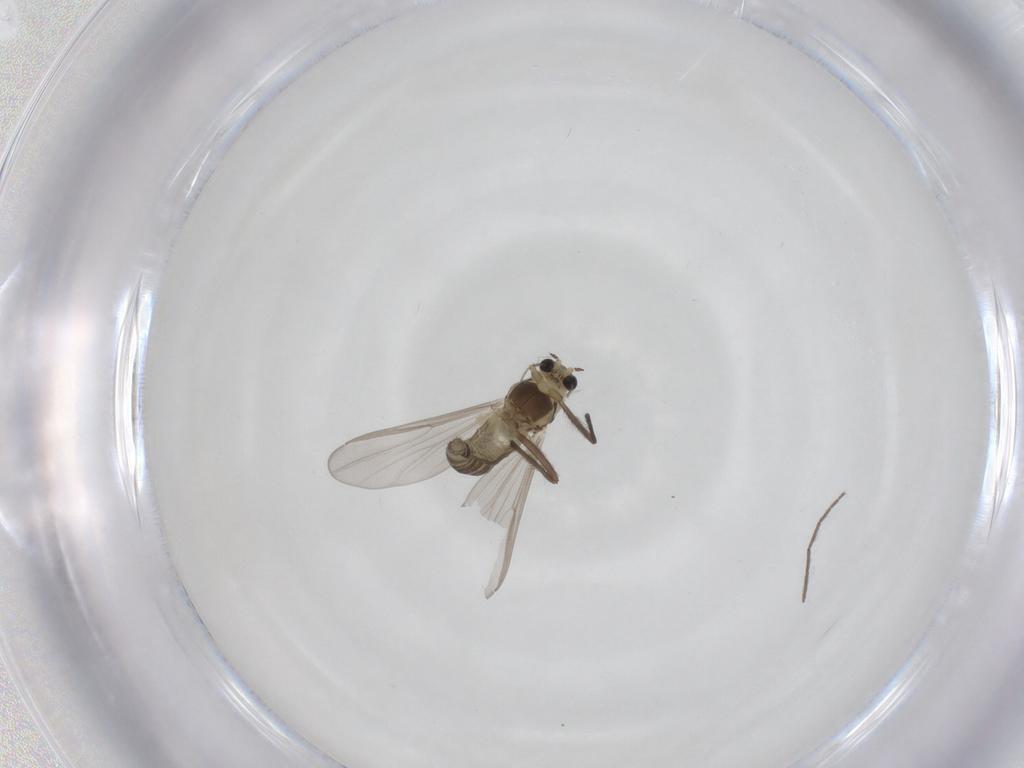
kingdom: Animalia
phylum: Arthropoda
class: Insecta
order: Diptera
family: Chironomidae
